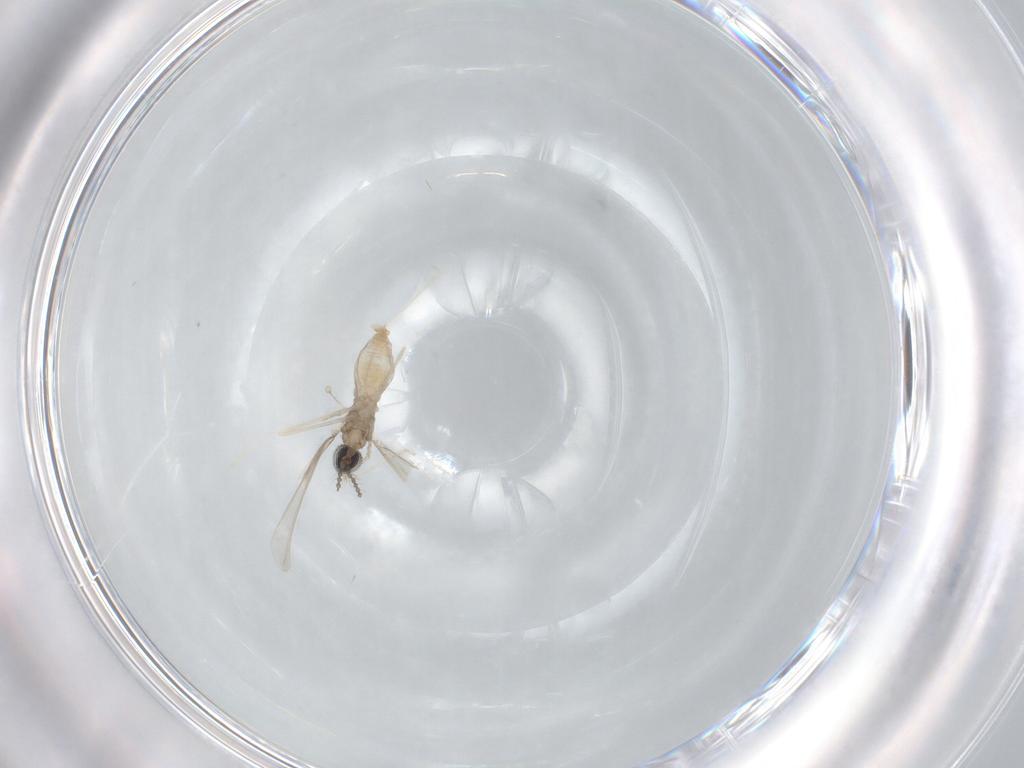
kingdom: Animalia
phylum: Arthropoda
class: Insecta
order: Diptera
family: Cecidomyiidae
